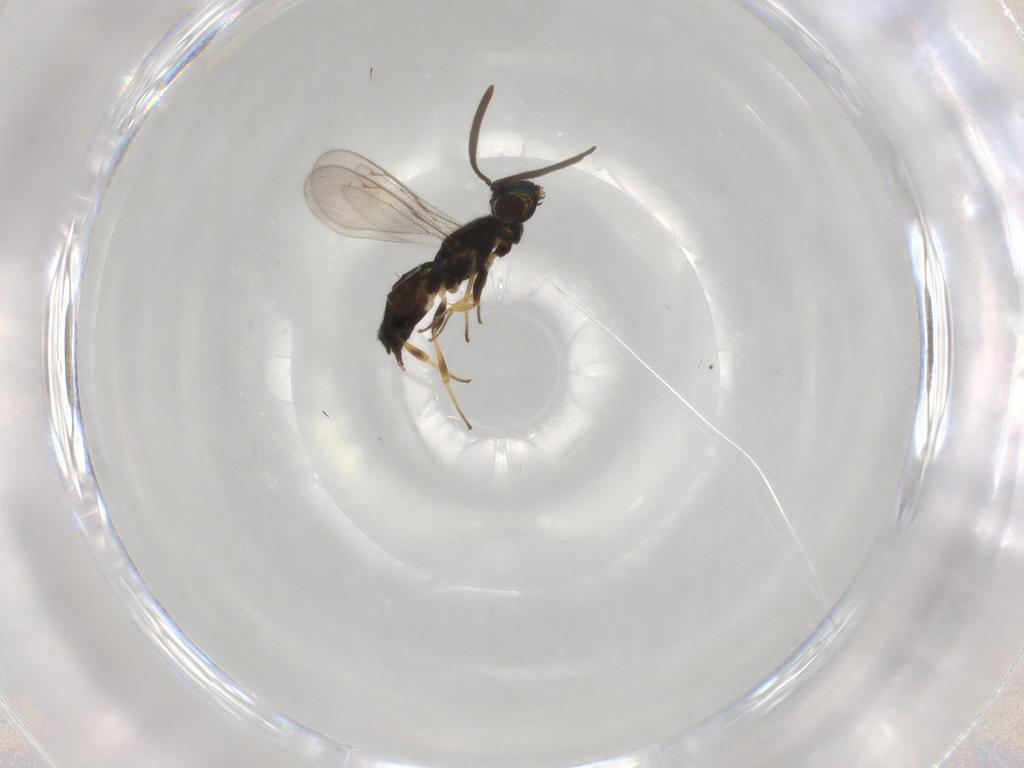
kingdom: Animalia
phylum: Arthropoda
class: Insecta
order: Hymenoptera
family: Eupelmidae
